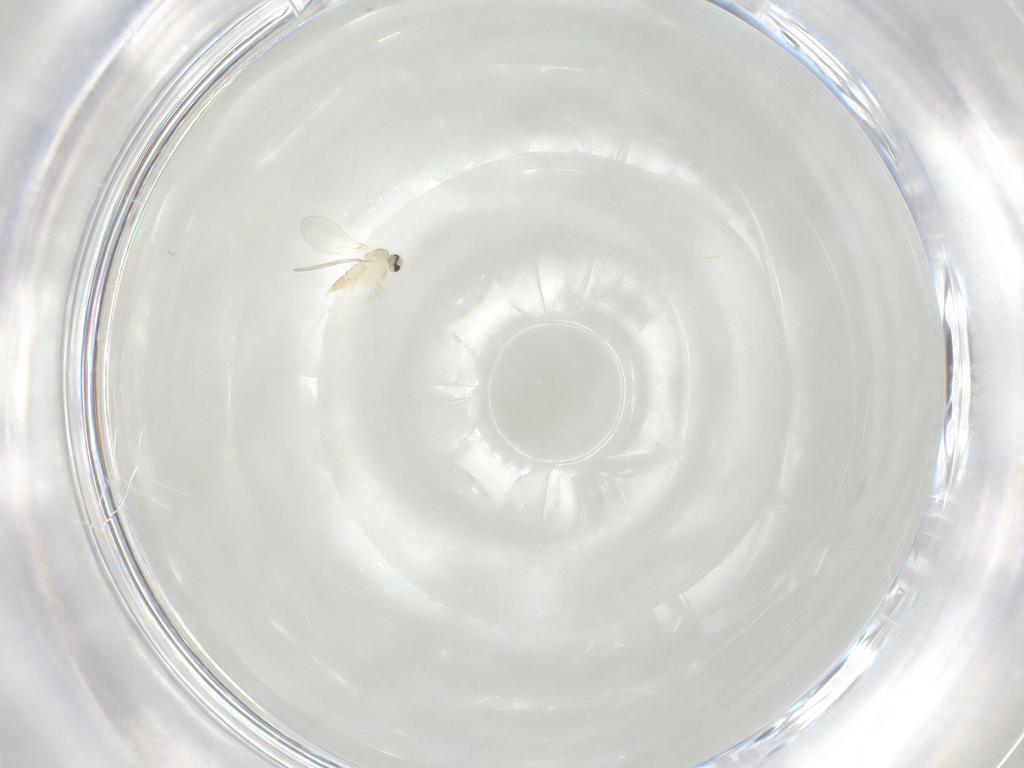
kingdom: Animalia
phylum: Arthropoda
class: Insecta
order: Diptera
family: Cecidomyiidae
